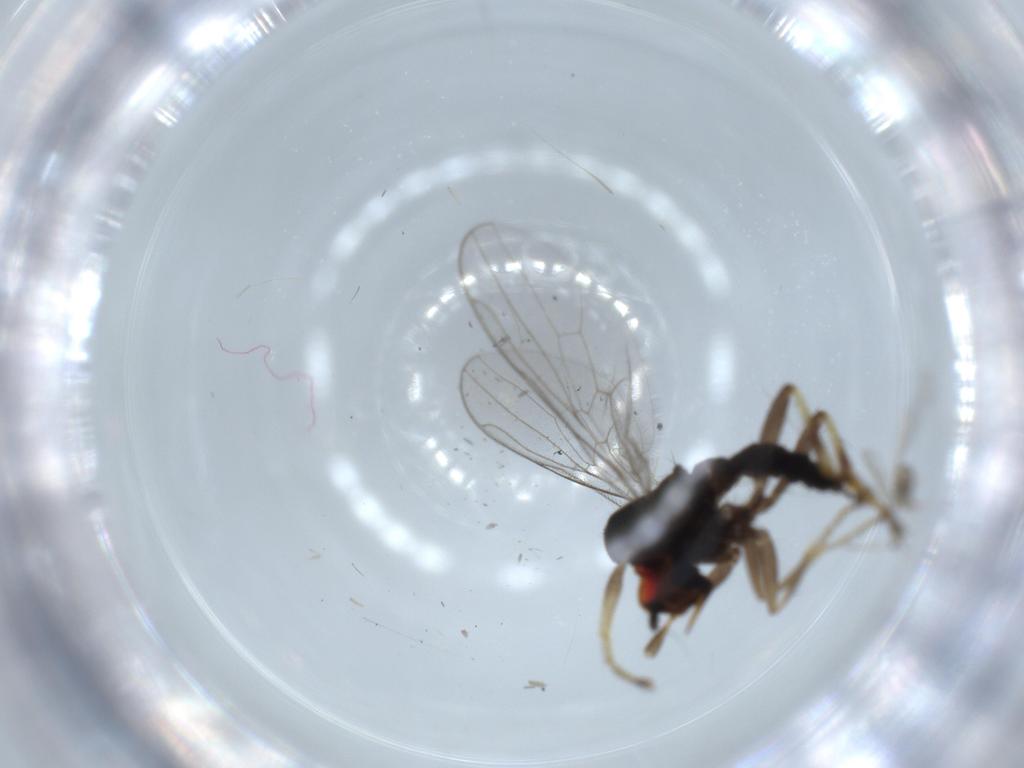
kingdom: Animalia
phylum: Arthropoda
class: Insecta
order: Diptera
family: Hybotidae
